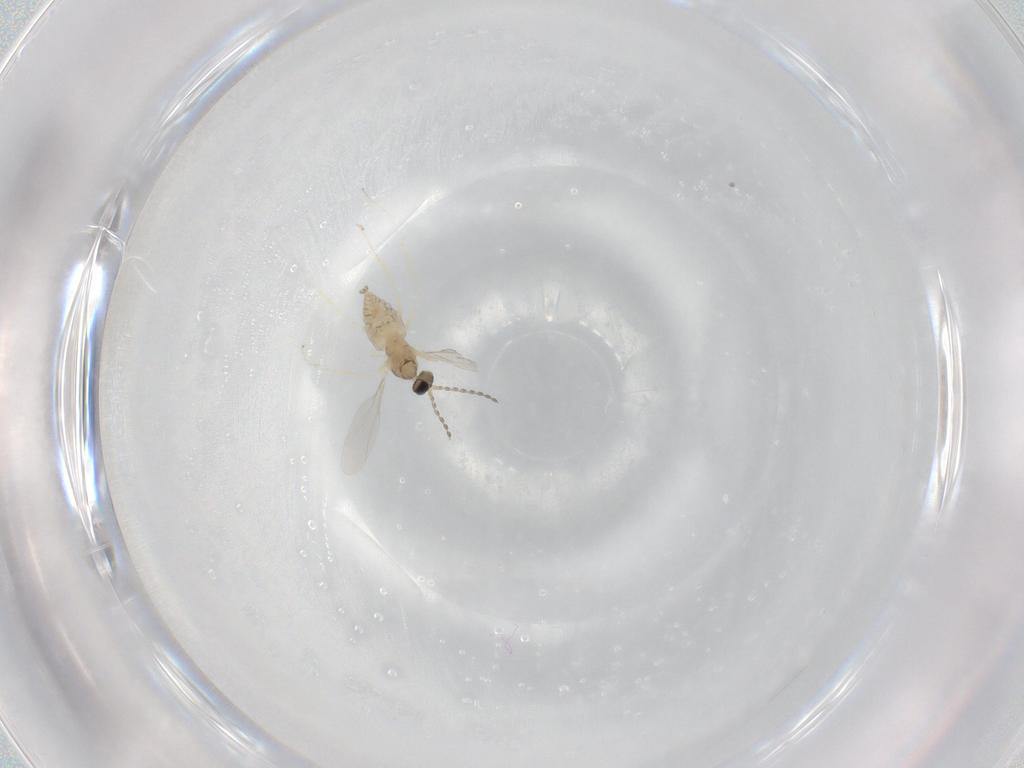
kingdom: Animalia
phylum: Arthropoda
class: Insecta
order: Diptera
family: Cecidomyiidae
